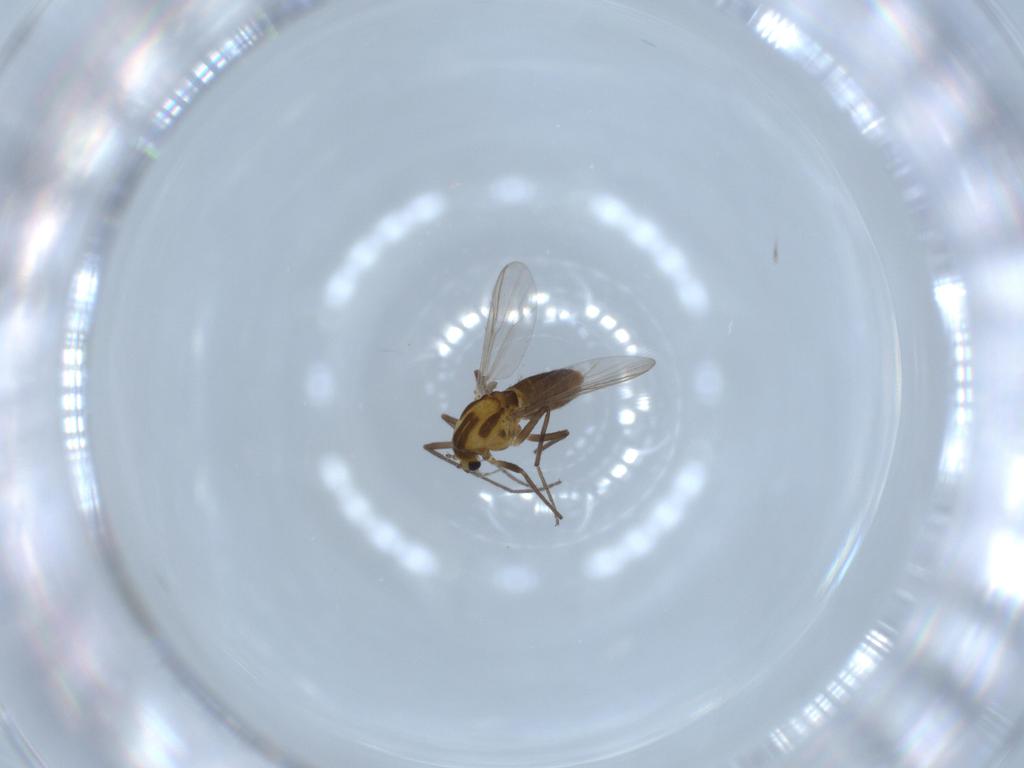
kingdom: Animalia
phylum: Arthropoda
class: Insecta
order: Diptera
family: Chironomidae
